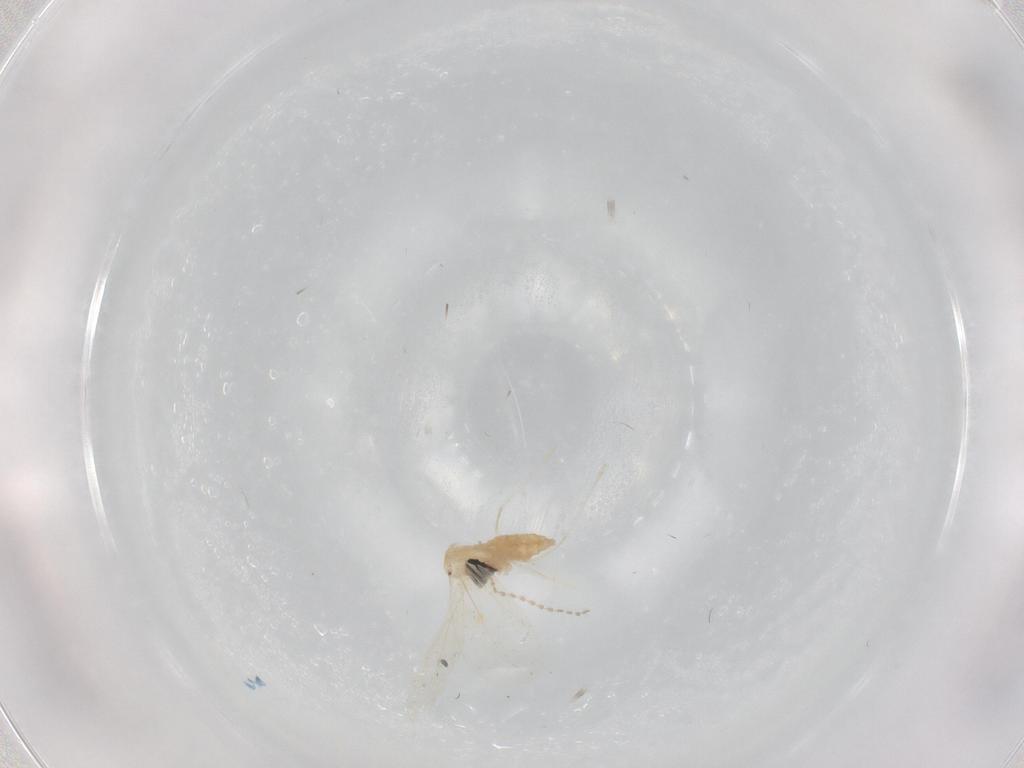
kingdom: Animalia
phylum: Arthropoda
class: Insecta
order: Diptera
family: Cecidomyiidae
